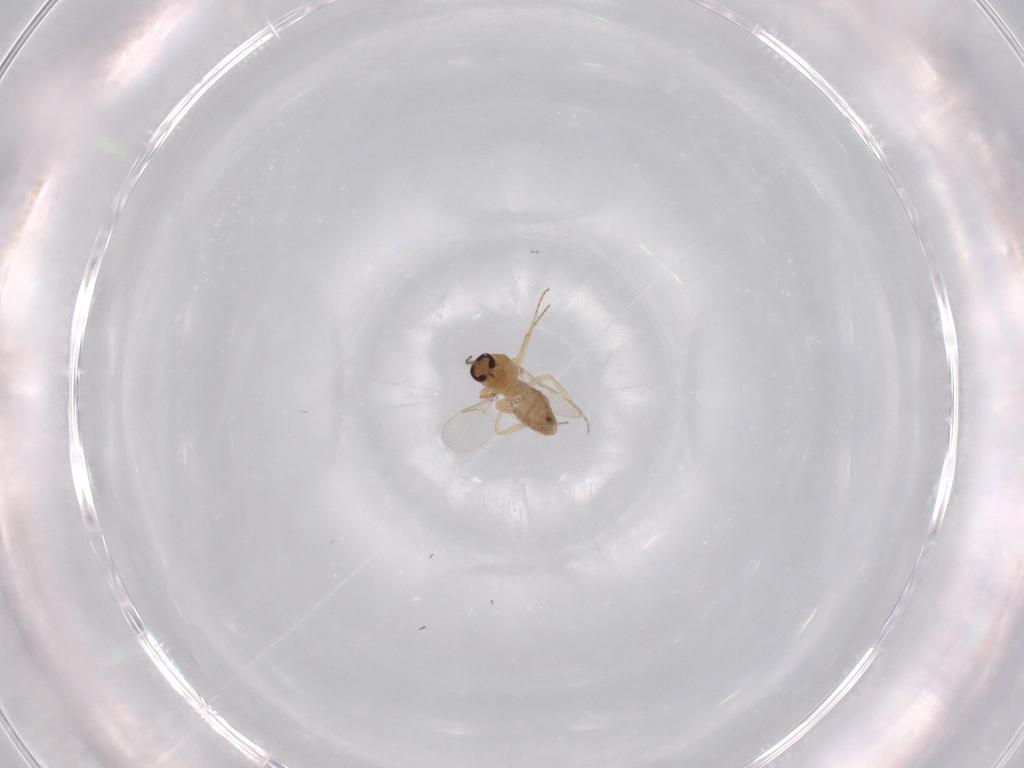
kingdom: Animalia
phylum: Arthropoda
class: Insecta
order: Diptera
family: Ceratopogonidae
